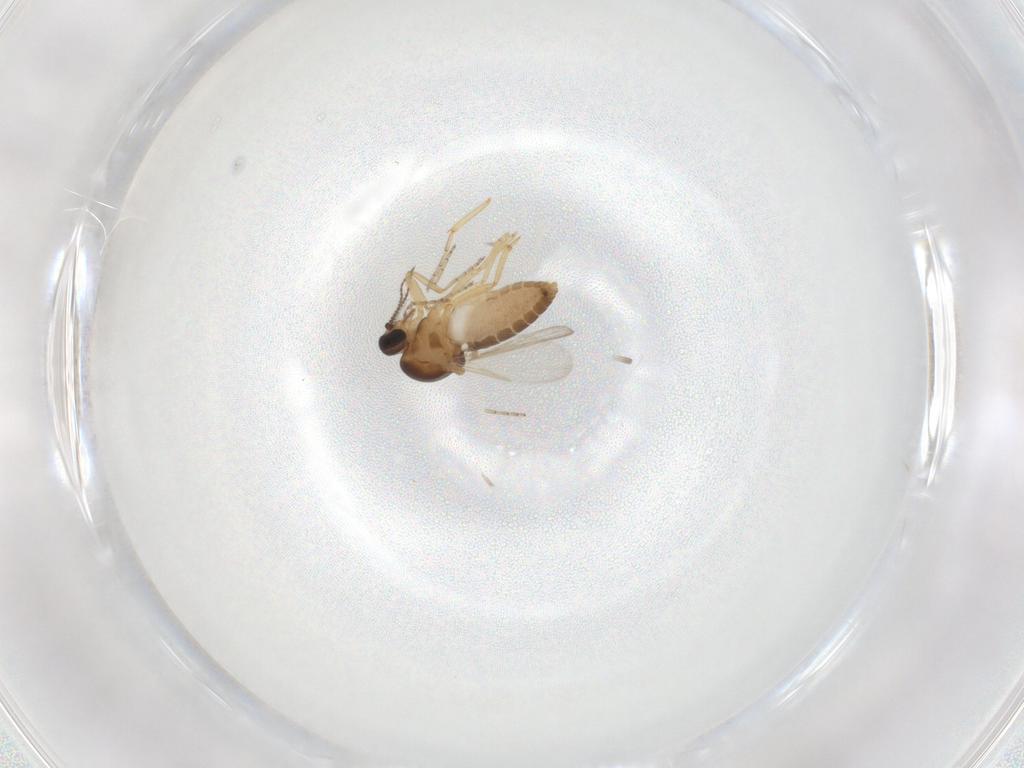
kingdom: Animalia
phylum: Arthropoda
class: Insecta
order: Diptera
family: Ceratopogonidae
